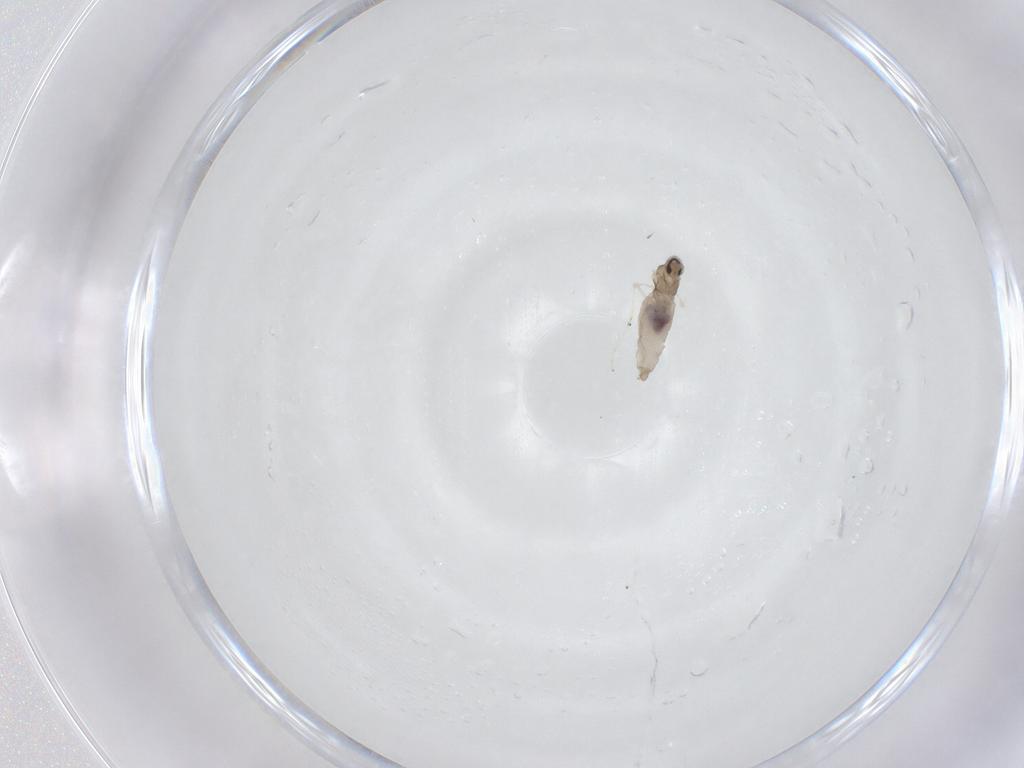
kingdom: Animalia
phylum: Arthropoda
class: Insecta
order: Diptera
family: Cecidomyiidae
